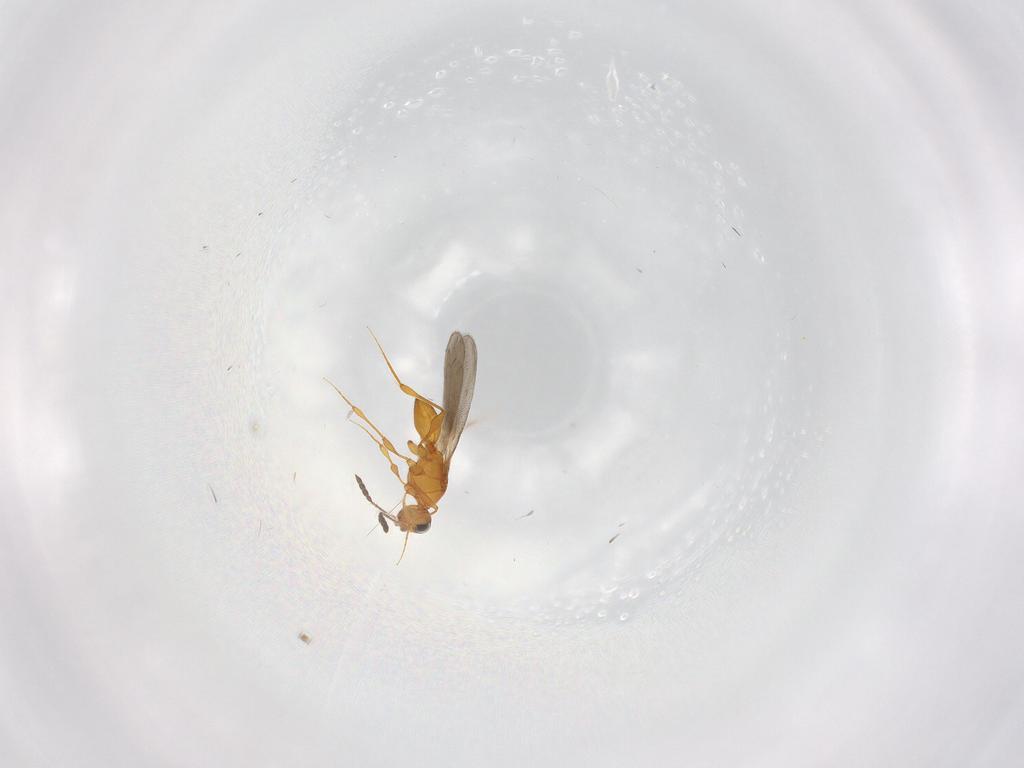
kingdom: Animalia
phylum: Arthropoda
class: Insecta
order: Hymenoptera
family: Platygastridae
